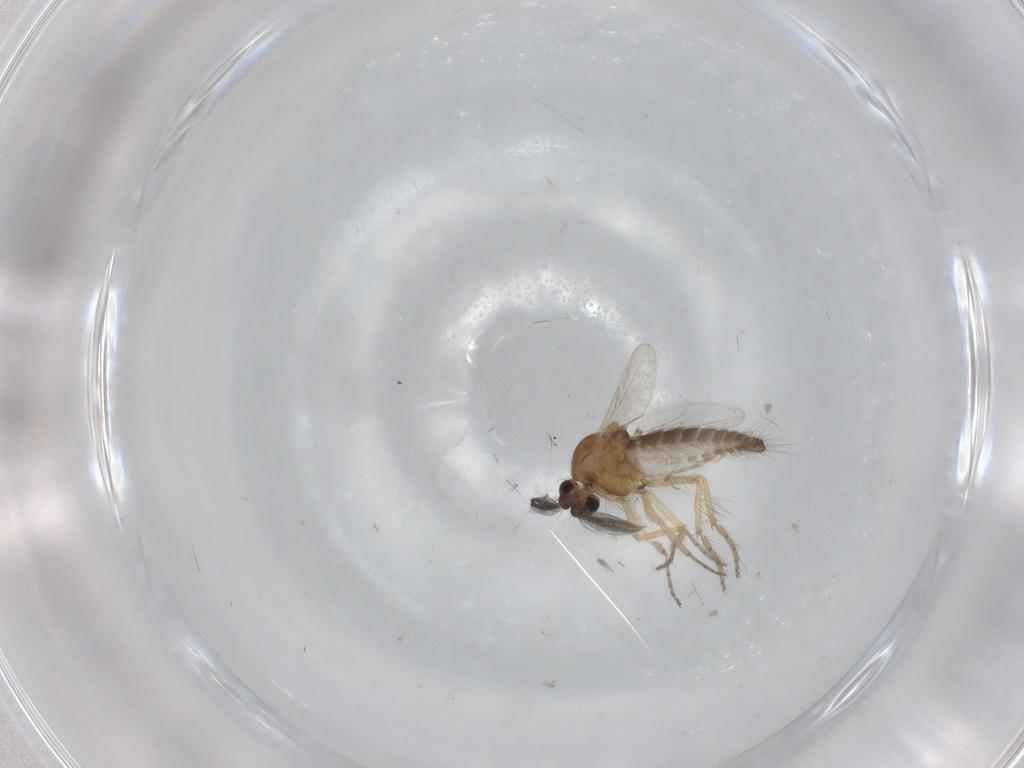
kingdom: Animalia
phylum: Arthropoda
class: Insecta
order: Diptera
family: Ceratopogonidae
